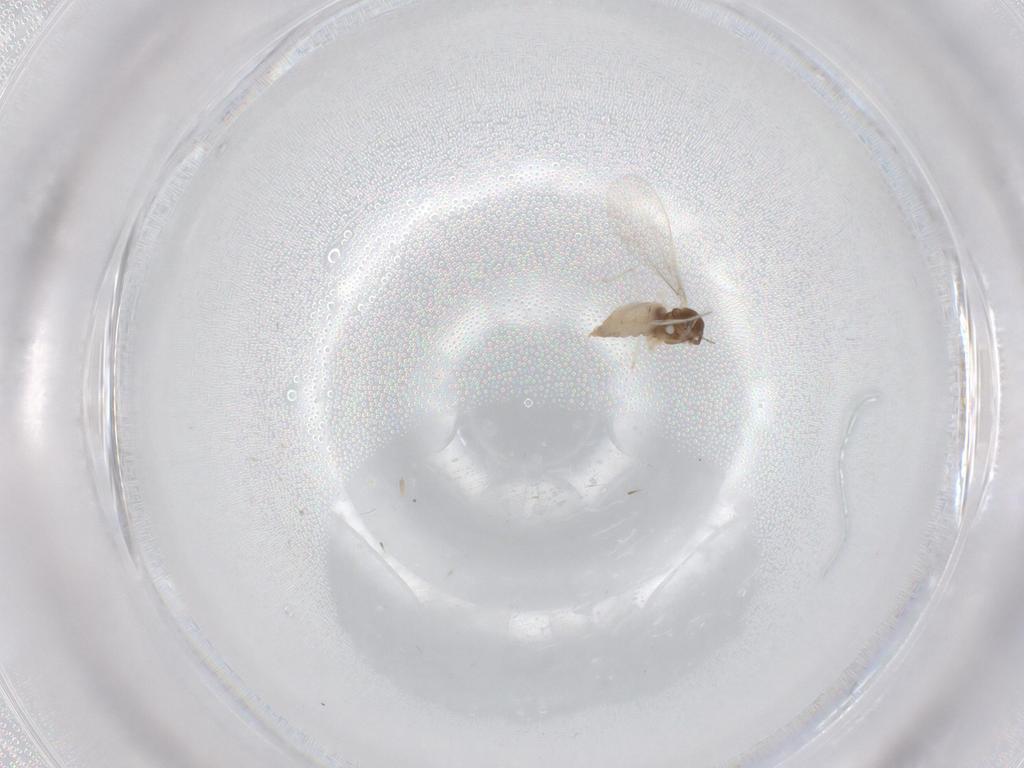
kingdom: Animalia
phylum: Arthropoda
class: Insecta
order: Diptera
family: Cecidomyiidae
